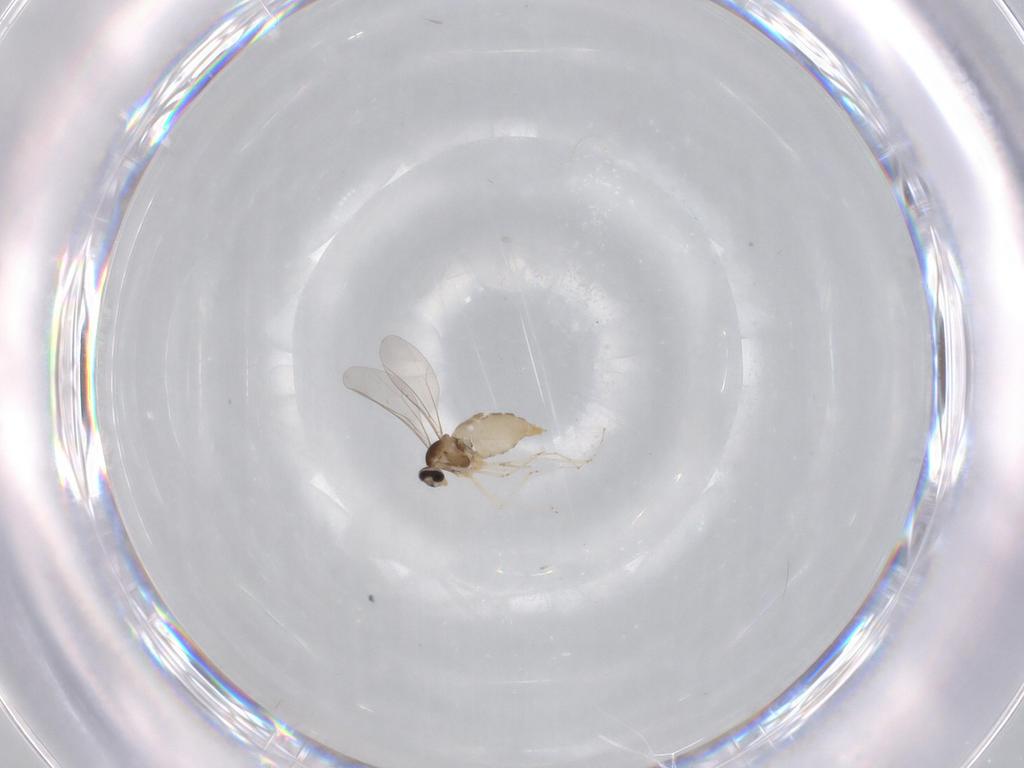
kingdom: Animalia
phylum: Arthropoda
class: Insecta
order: Diptera
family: Cecidomyiidae
